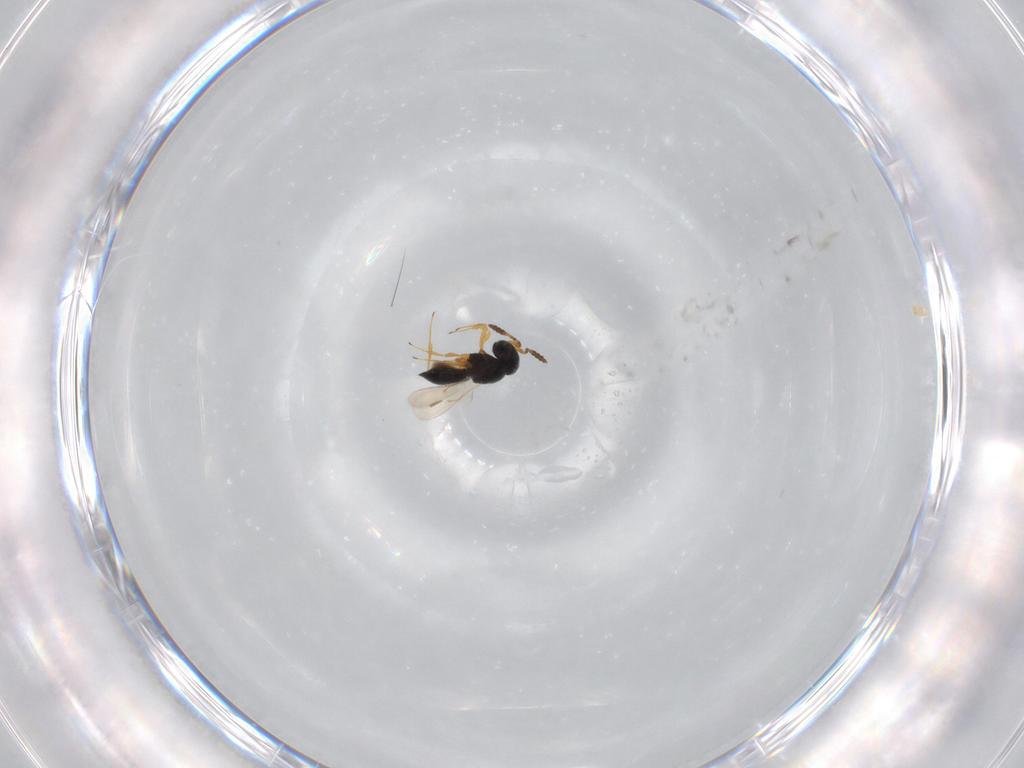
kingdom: Animalia
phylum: Arthropoda
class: Insecta
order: Hymenoptera
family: Scelionidae
